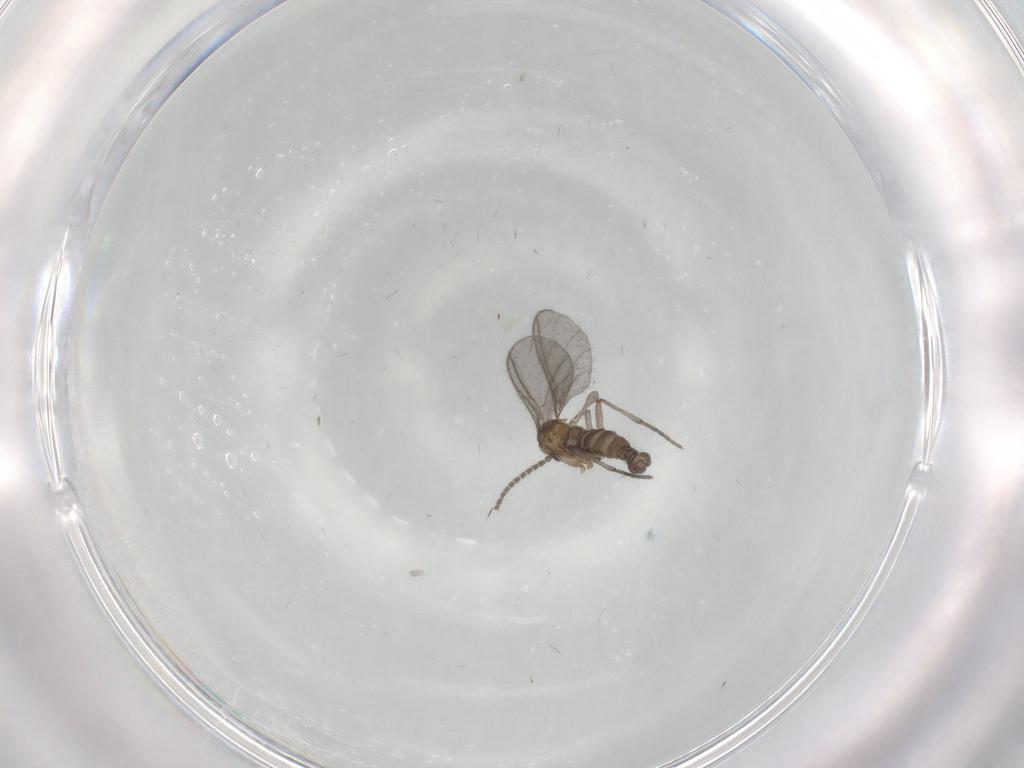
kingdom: Animalia
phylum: Arthropoda
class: Insecta
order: Diptera
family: Sciaridae
